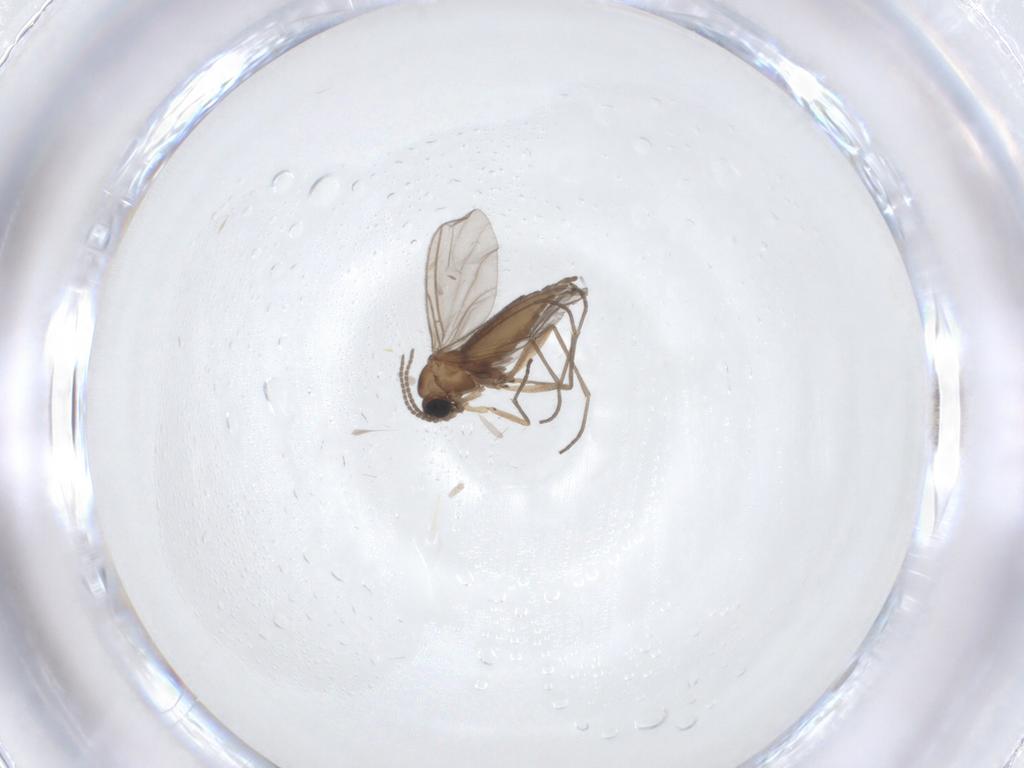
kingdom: Animalia
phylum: Arthropoda
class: Insecta
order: Diptera
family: Sciaridae
